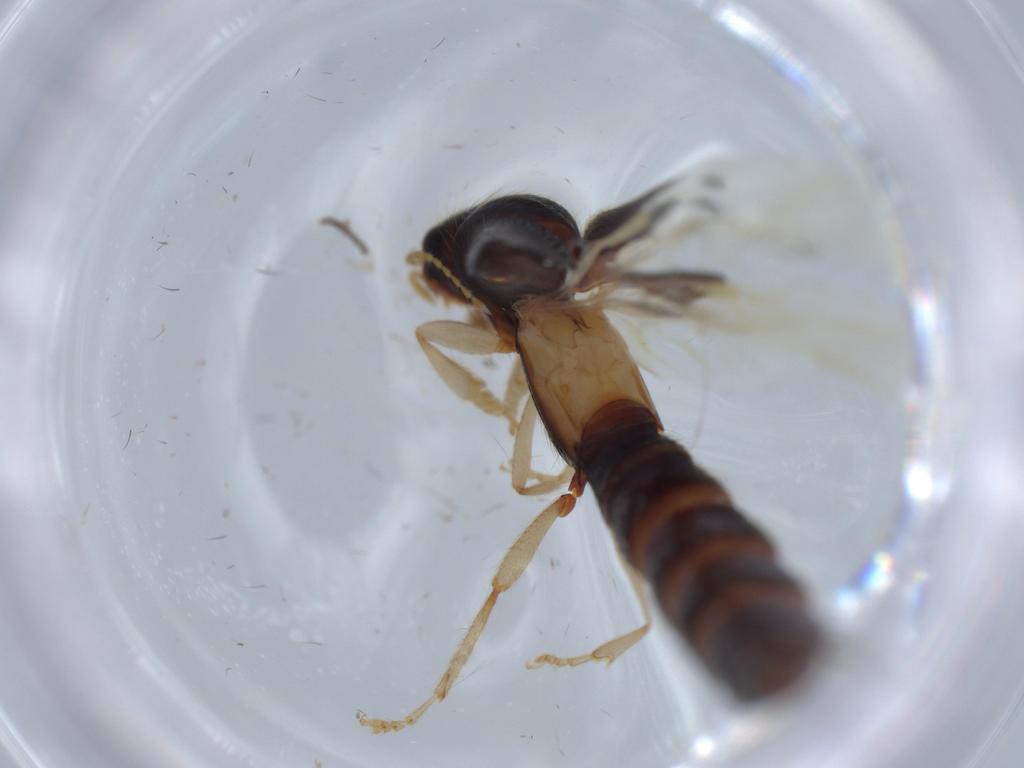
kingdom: Animalia
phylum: Arthropoda
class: Insecta
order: Coleoptera
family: Staphylinidae
